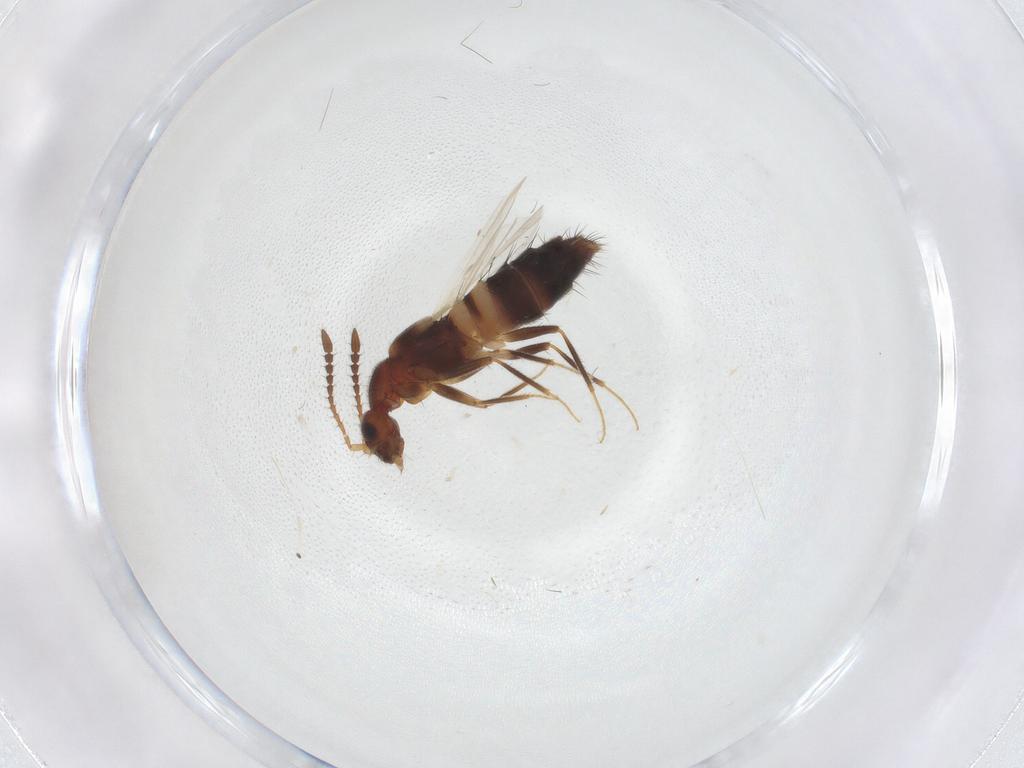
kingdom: Animalia
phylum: Arthropoda
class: Insecta
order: Coleoptera
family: Staphylinidae
